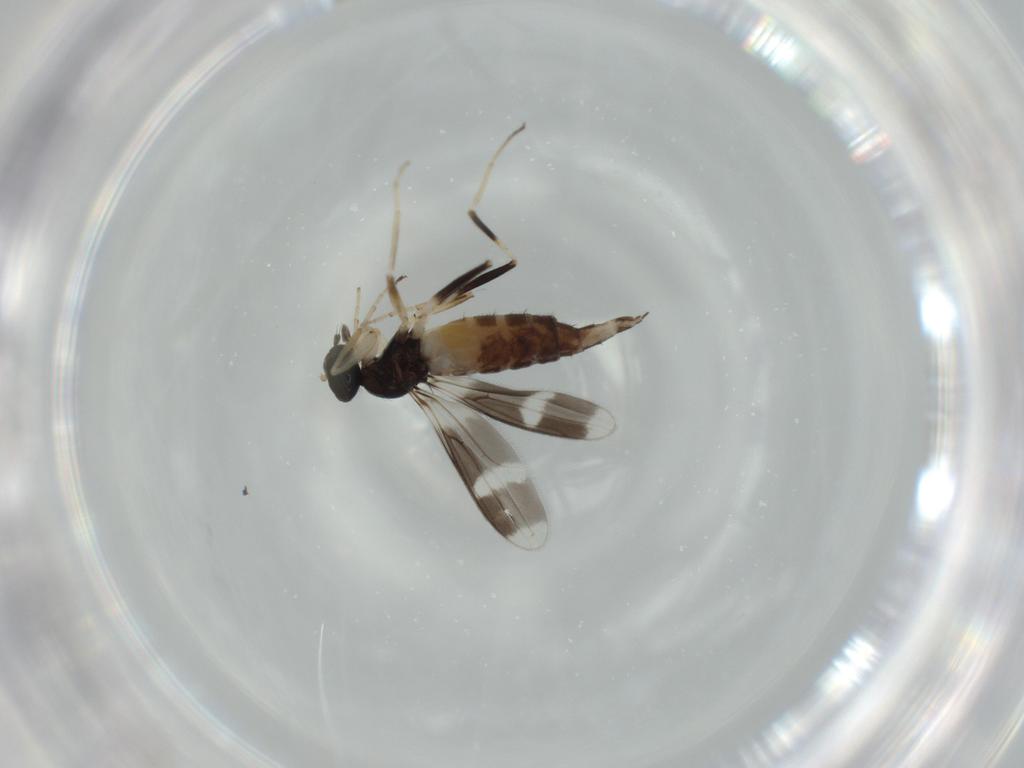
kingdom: Animalia
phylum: Arthropoda
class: Insecta
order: Diptera
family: Hybotidae
